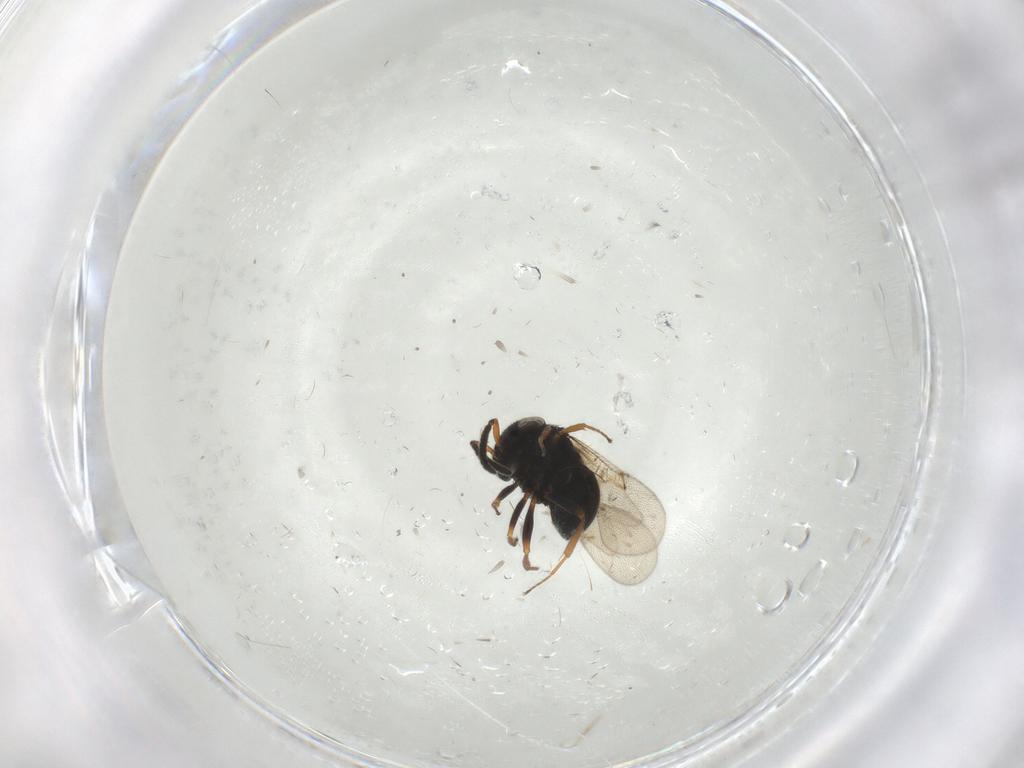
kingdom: Animalia
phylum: Arthropoda
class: Insecta
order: Hymenoptera
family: Scelionidae
